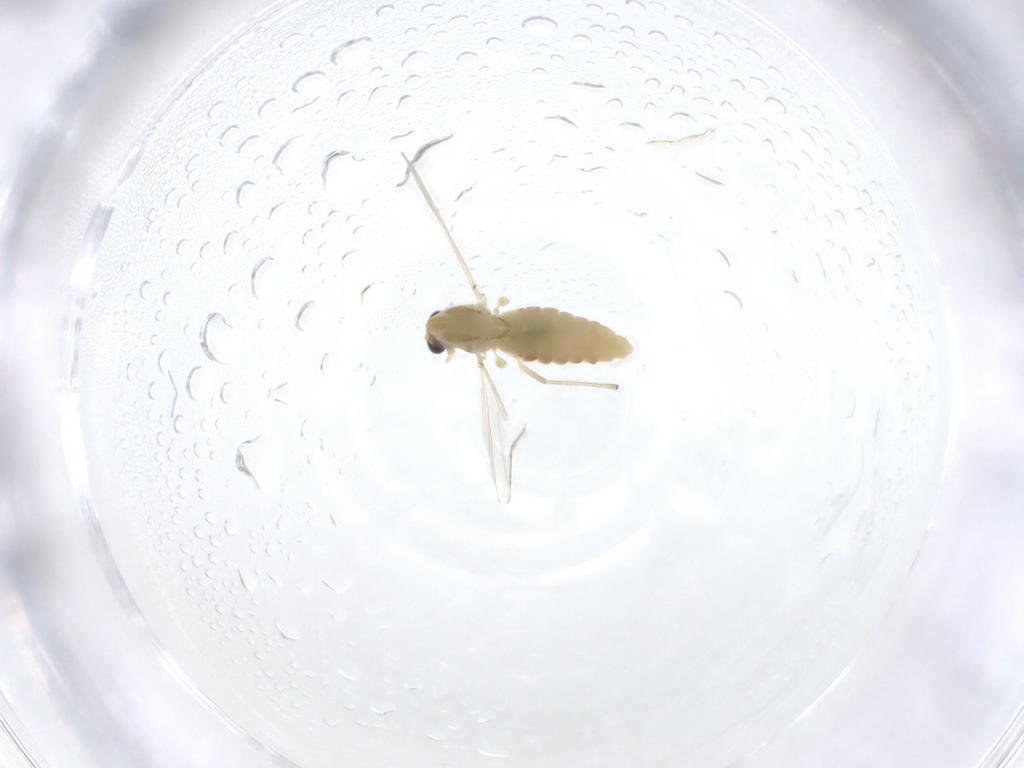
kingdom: Animalia
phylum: Arthropoda
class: Insecta
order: Diptera
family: Chironomidae
